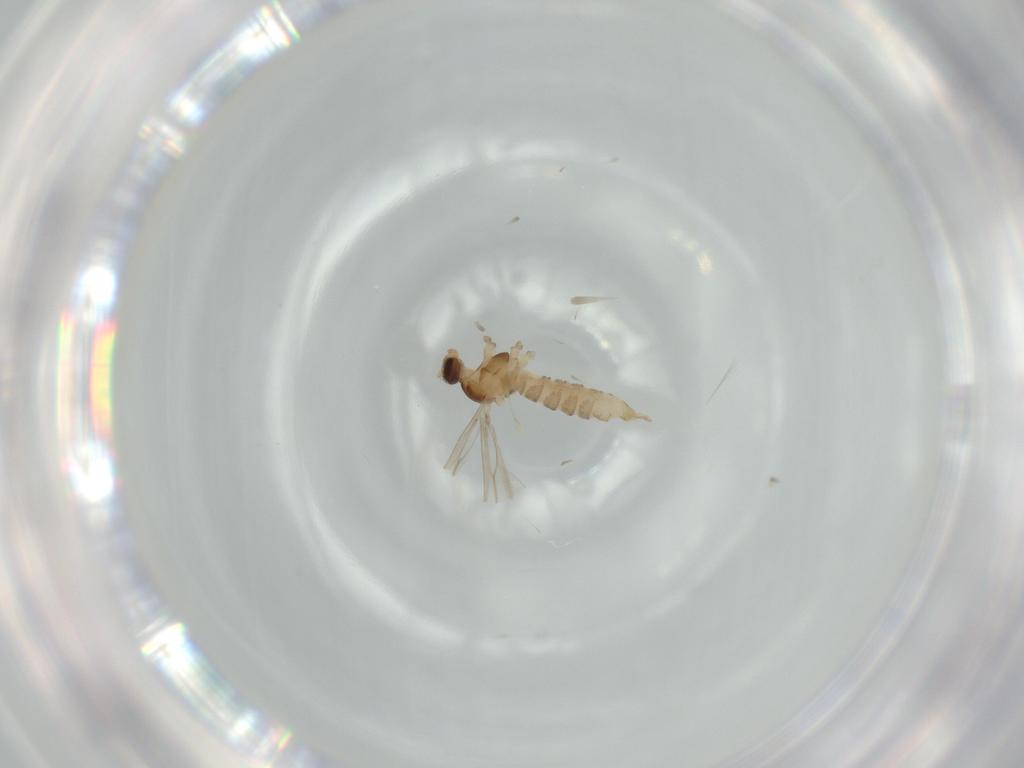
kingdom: Animalia
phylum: Arthropoda
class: Insecta
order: Diptera
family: Cecidomyiidae
